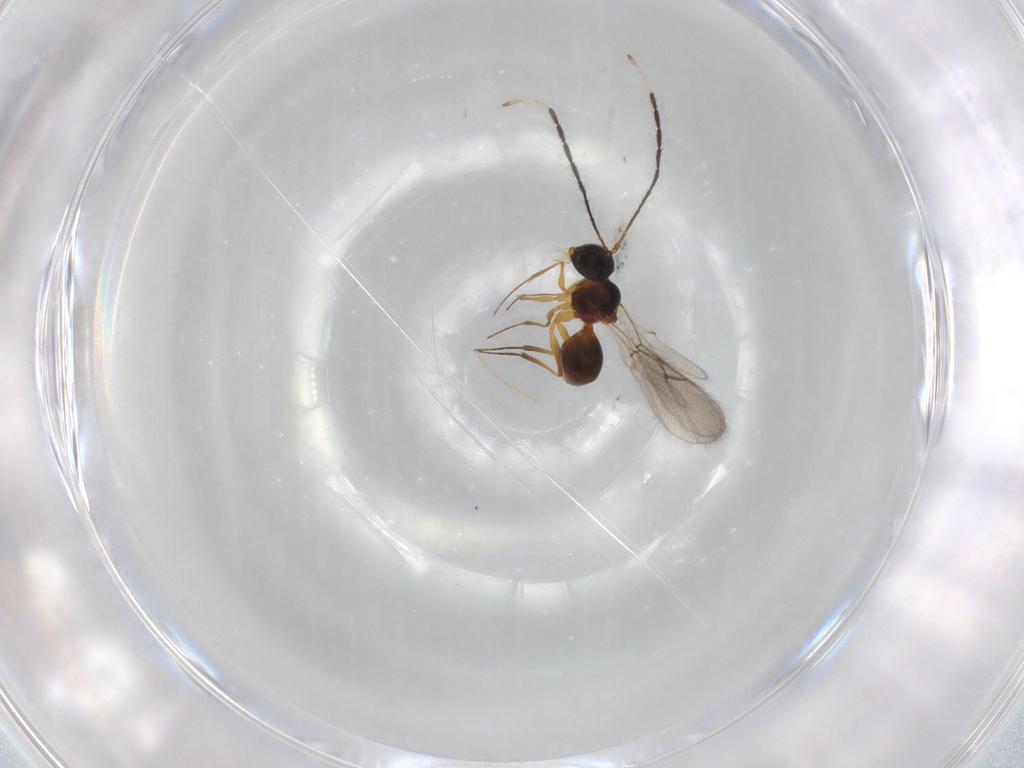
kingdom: Animalia
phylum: Arthropoda
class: Insecta
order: Hymenoptera
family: Figitidae
